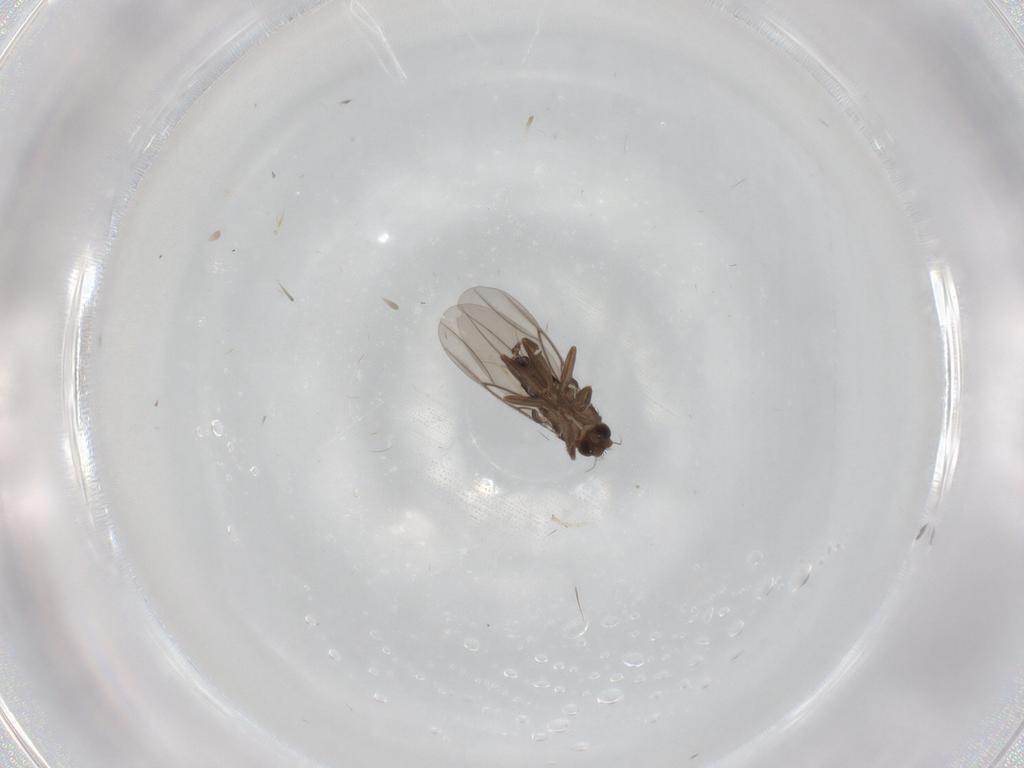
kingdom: Animalia
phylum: Arthropoda
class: Insecta
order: Diptera
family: Phoridae
